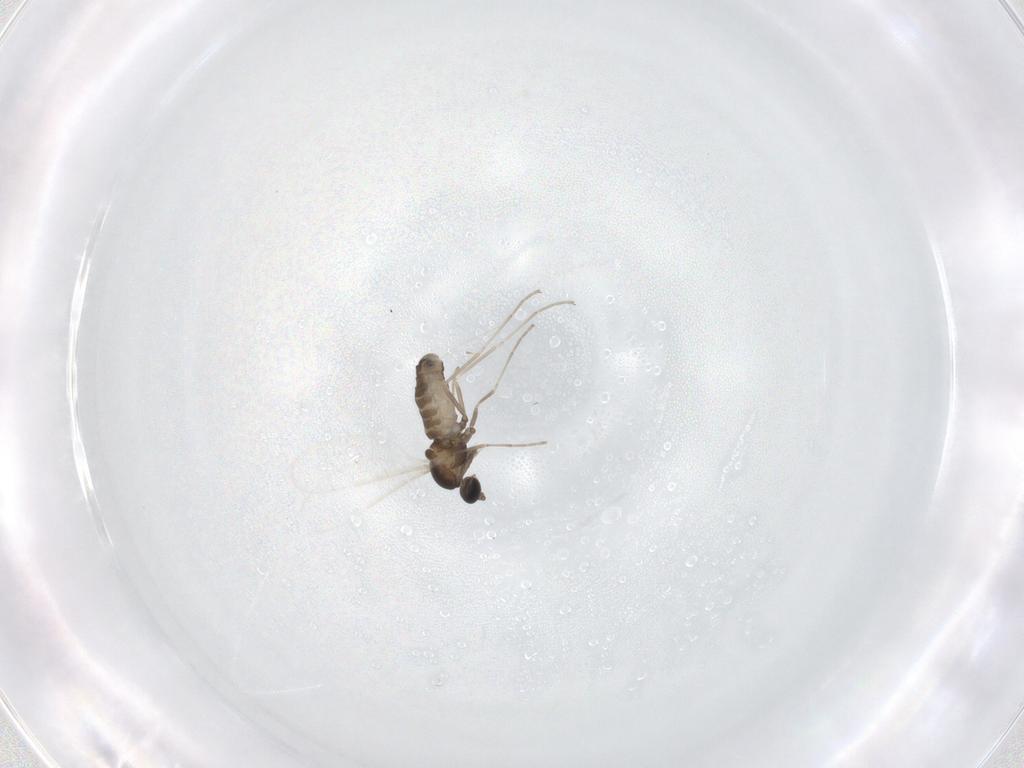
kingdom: Animalia
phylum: Arthropoda
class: Insecta
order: Diptera
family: Cecidomyiidae
